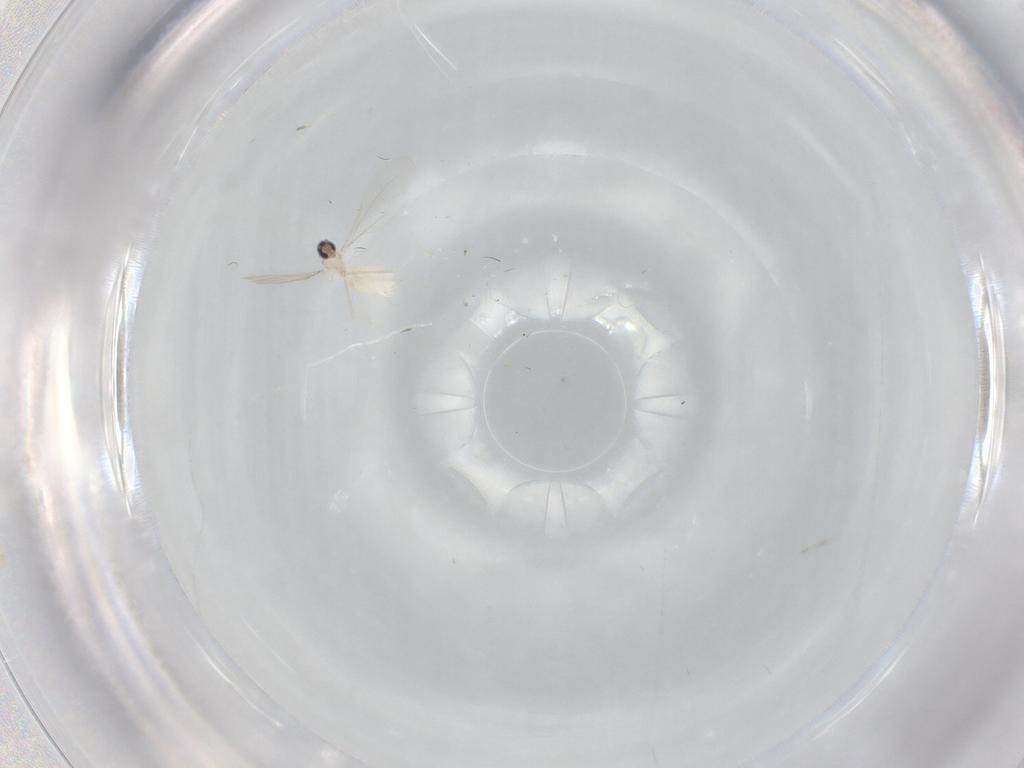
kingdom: Animalia
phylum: Arthropoda
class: Insecta
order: Diptera
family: Cecidomyiidae
